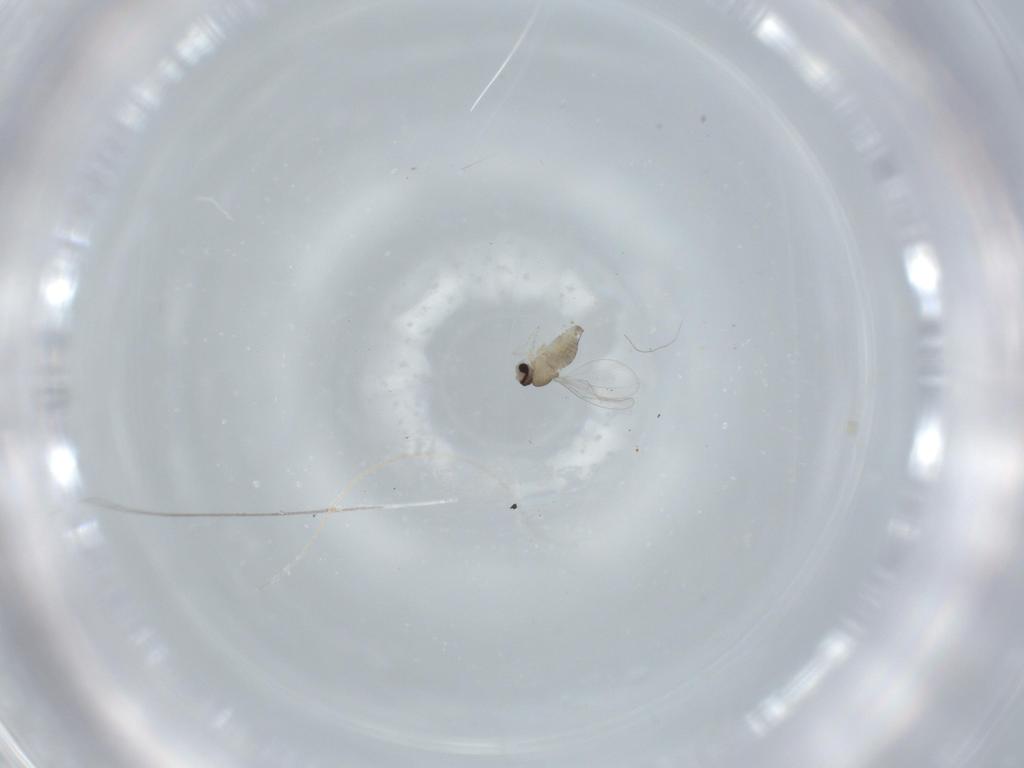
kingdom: Animalia
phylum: Arthropoda
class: Insecta
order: Diptera
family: Cecidomyiidae
